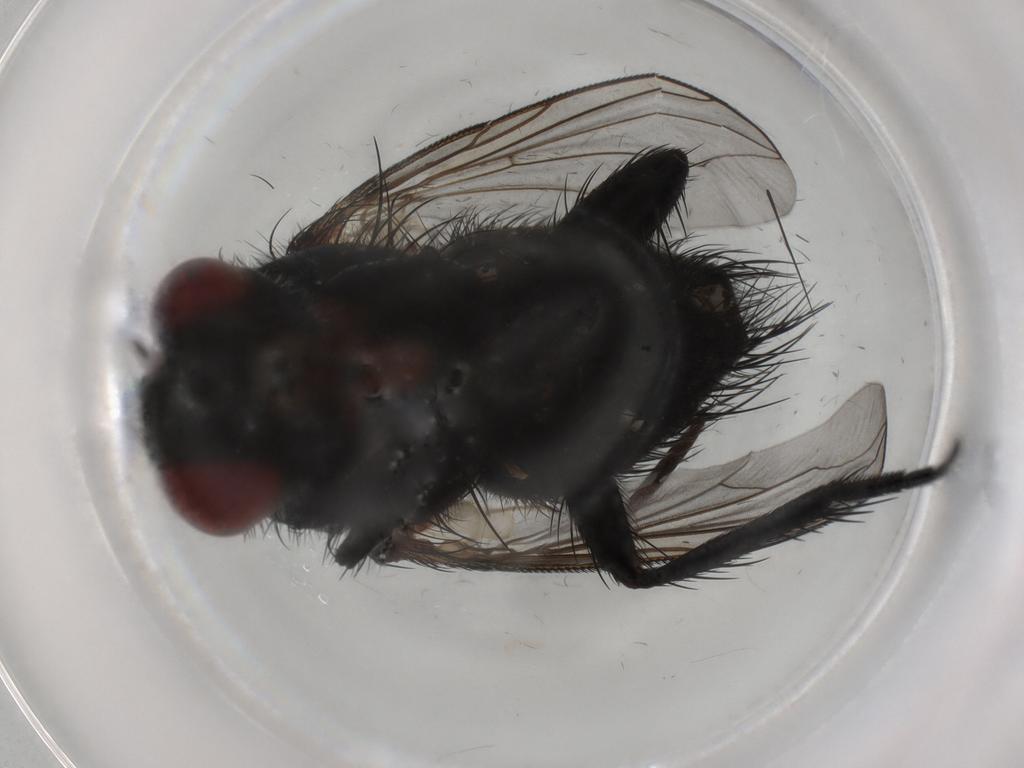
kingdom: Animalia
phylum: Arthropoda
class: Insecta
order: Diptera
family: Tachinidae
